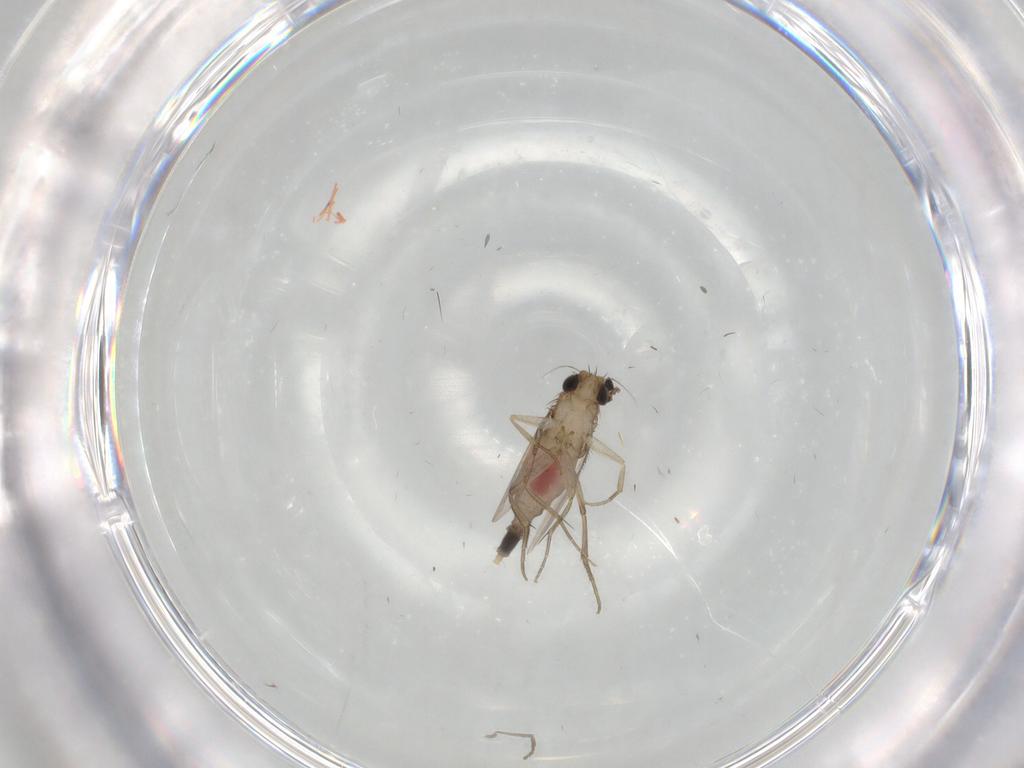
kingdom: Animalia
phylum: Arthropoda
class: Insecta
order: Diptera
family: Phoridae
